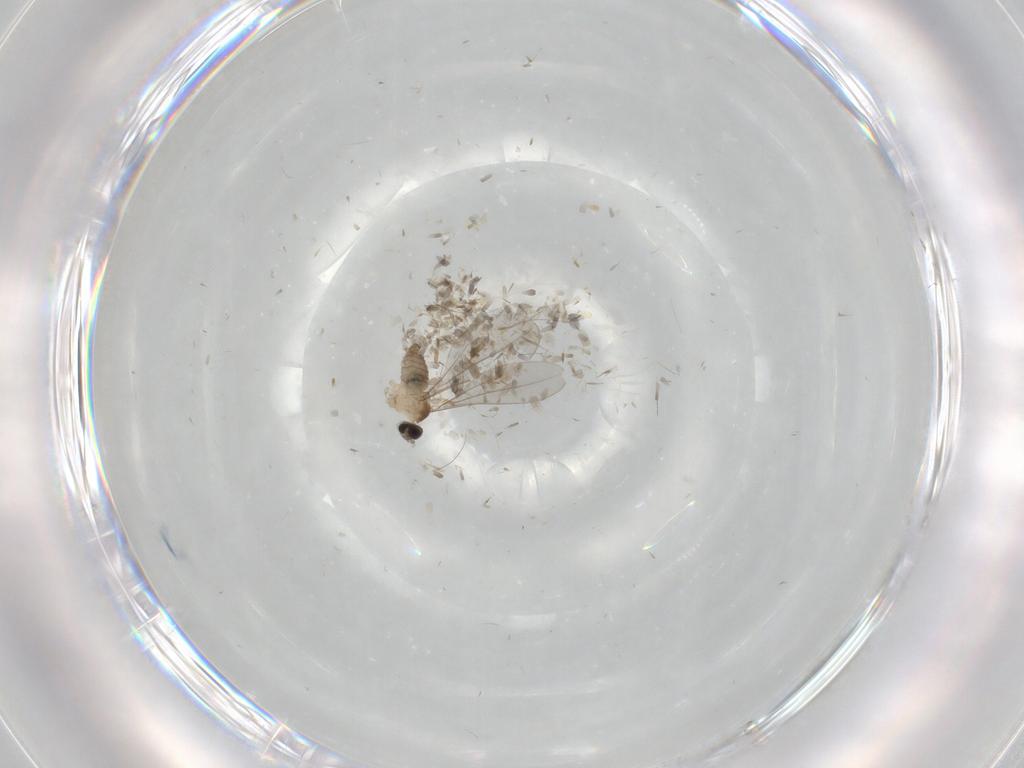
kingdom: Animalia
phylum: Arthropoda
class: Insecta
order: Diptera
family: Cecidomyiidae
